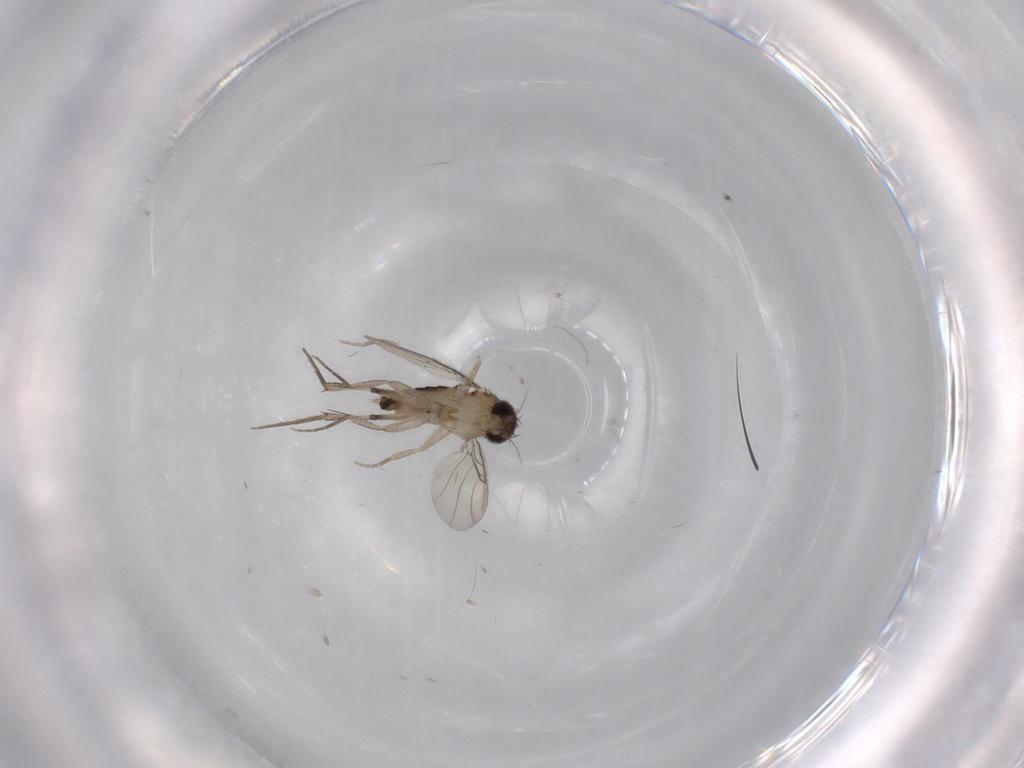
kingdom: Animalia
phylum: Arthropoda
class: Insecta
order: Diptera
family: Phoridae
